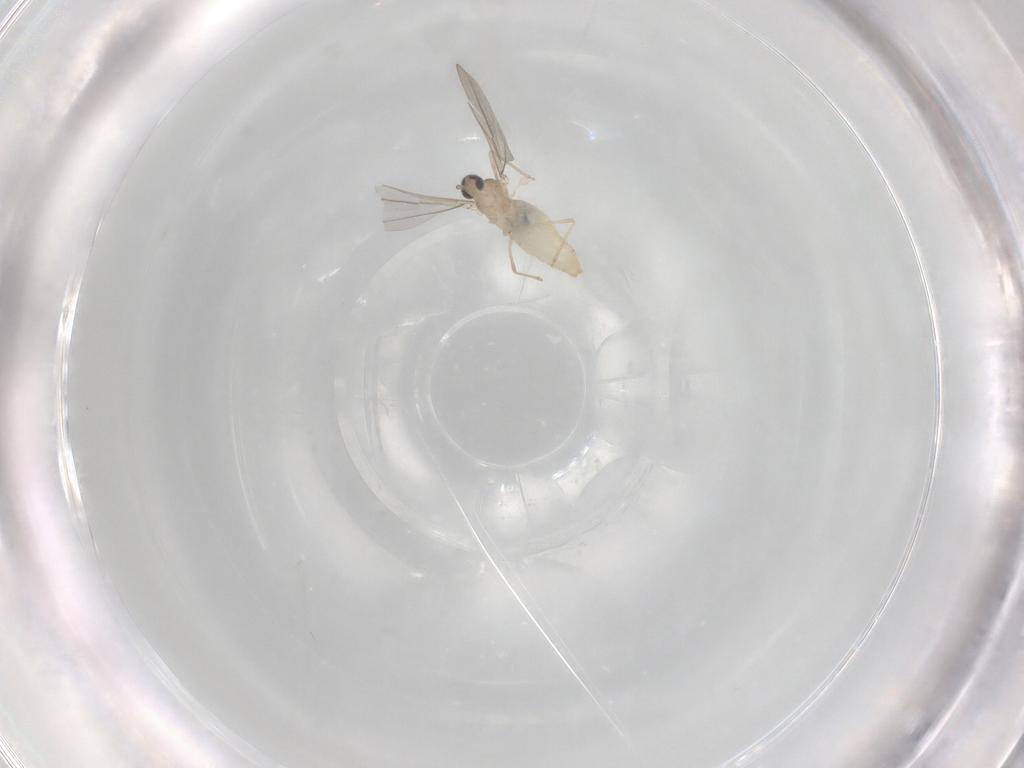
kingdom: Animalia
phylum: Arthropoda
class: Insecta
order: Diptera
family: Cecidomyiidae
